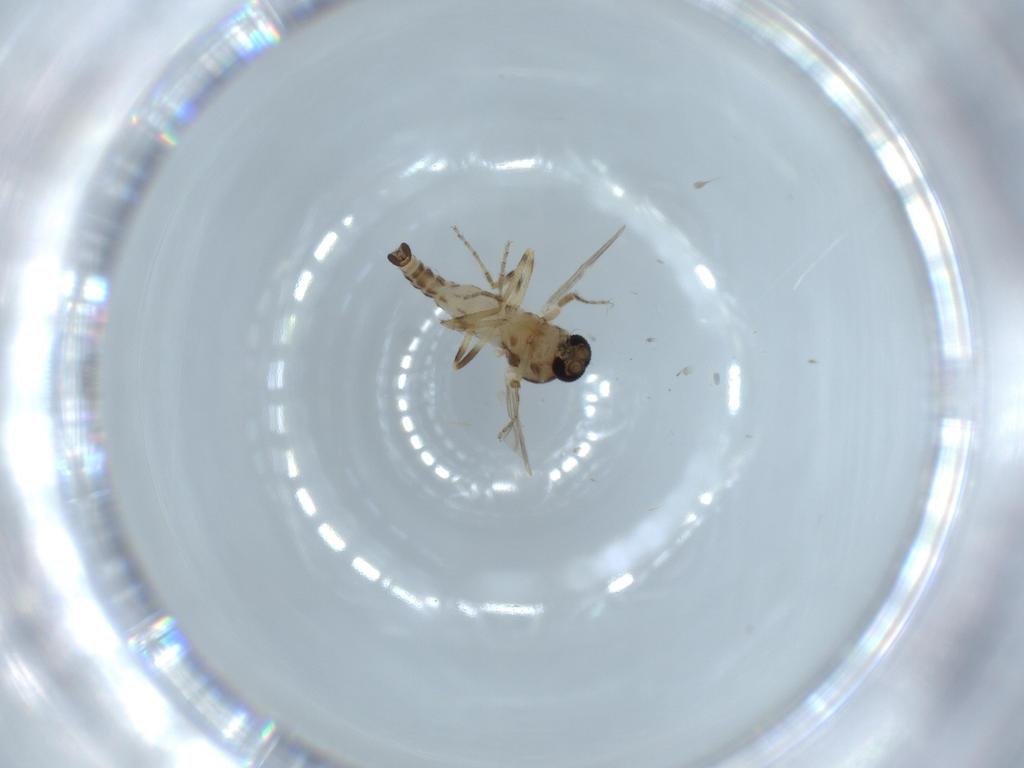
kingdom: Animalia
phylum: Arthropoda
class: Insecta
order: Diptera
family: Ceratopogonidae
